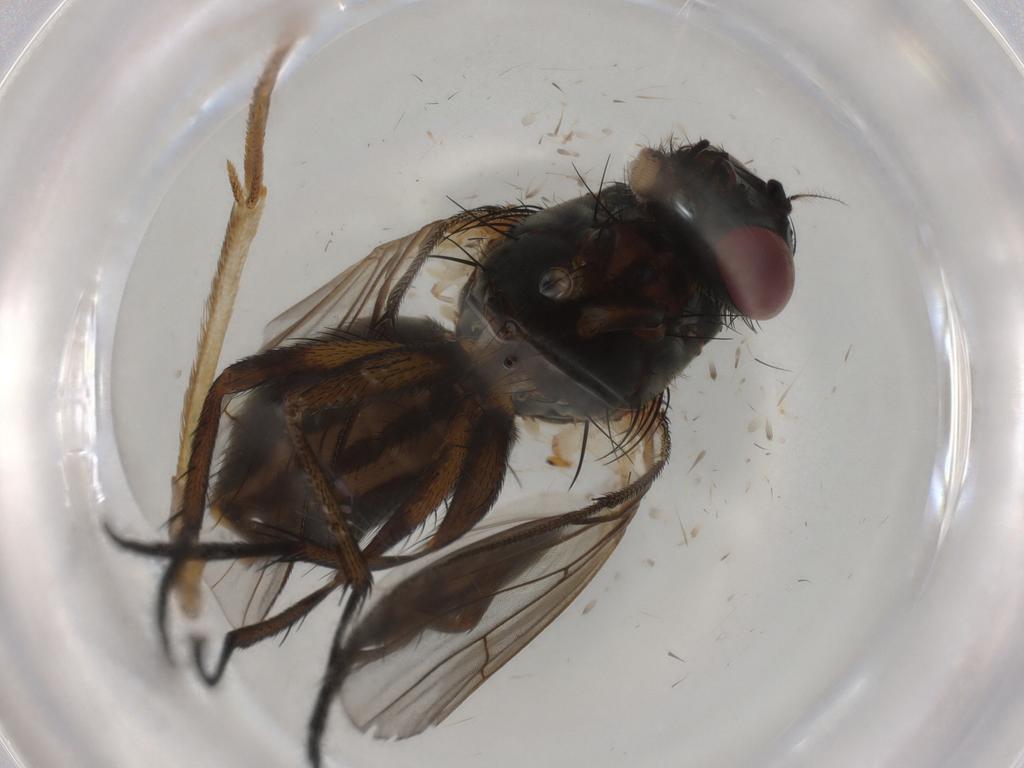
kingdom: Animalia
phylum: Arthropoda
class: Insecta
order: Diptera
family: Muscidae
